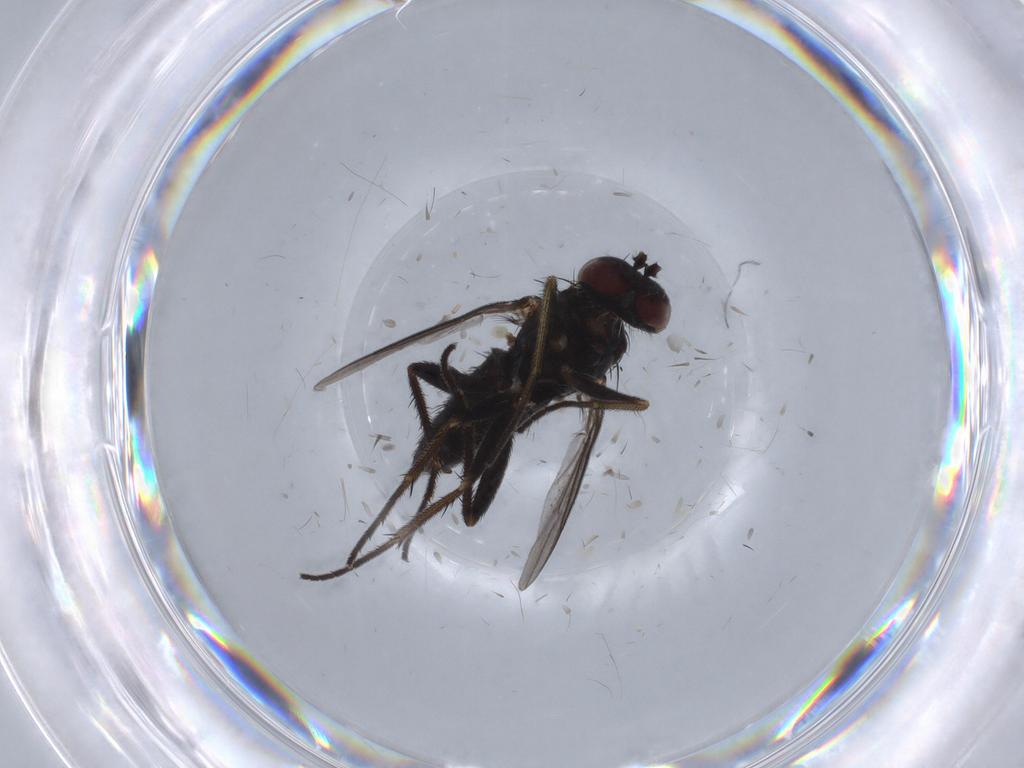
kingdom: Animalia
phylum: Arthropoda
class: Insecta
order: Diptera
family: Dolichopodidae
